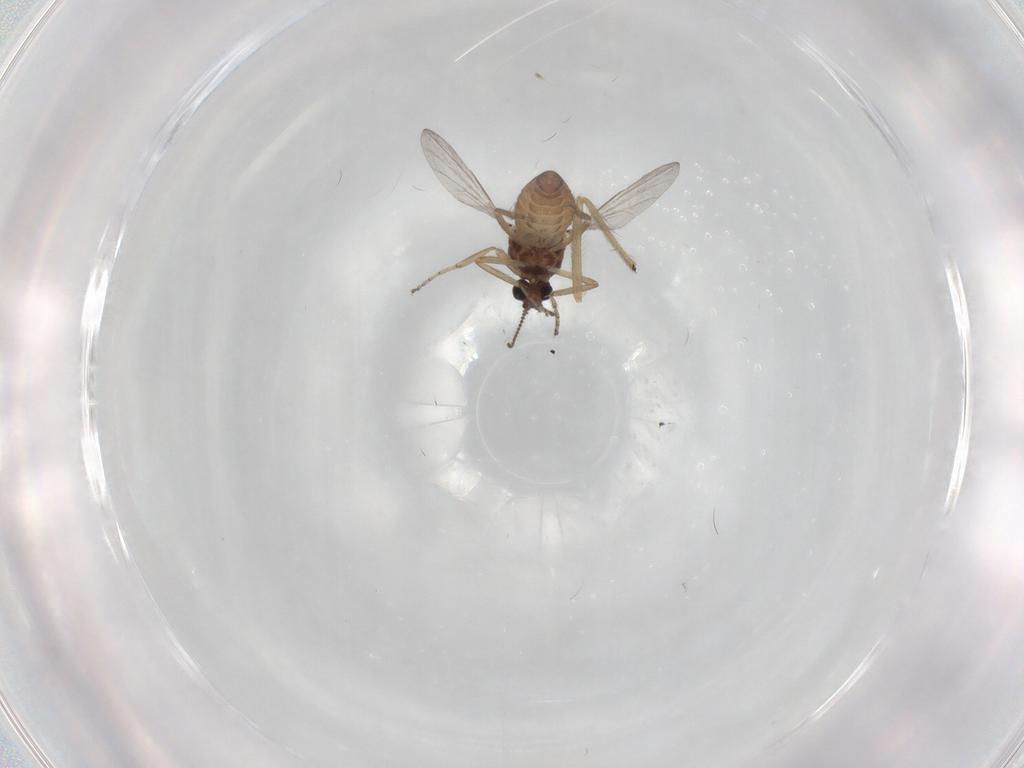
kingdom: Animalia
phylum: Arthropoda
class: Insecta
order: Diptera
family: Ceratopogonidae
